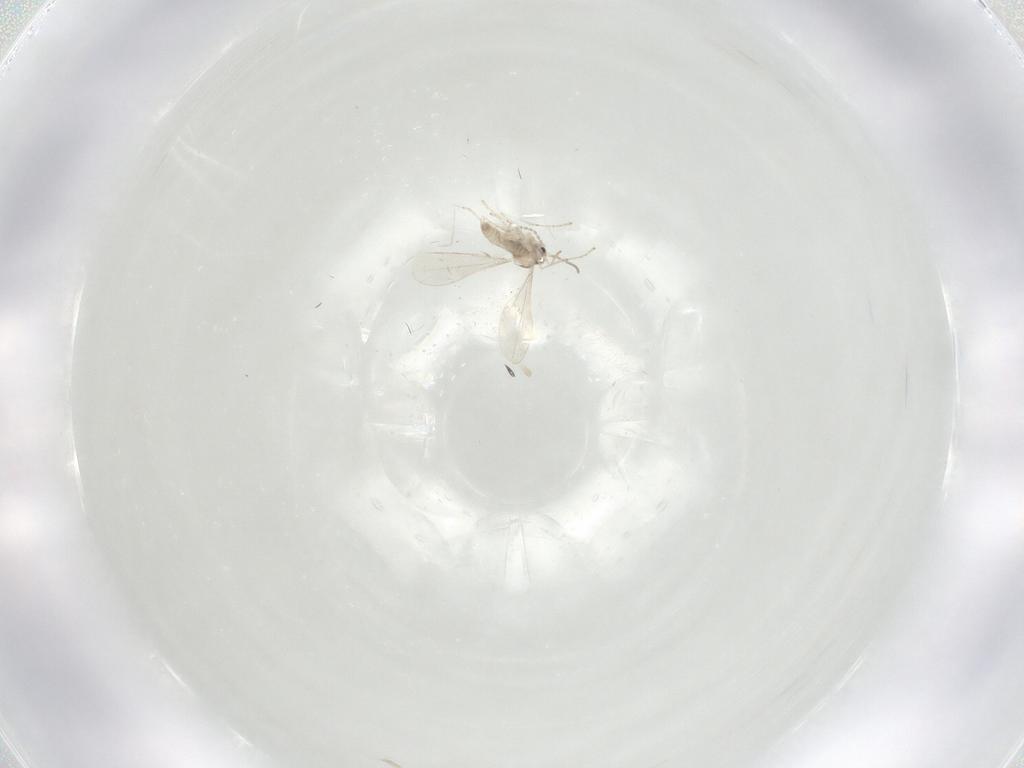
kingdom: Animalia
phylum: Arthropoda
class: Insecta
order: Diptera
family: Cecidomyiidae
